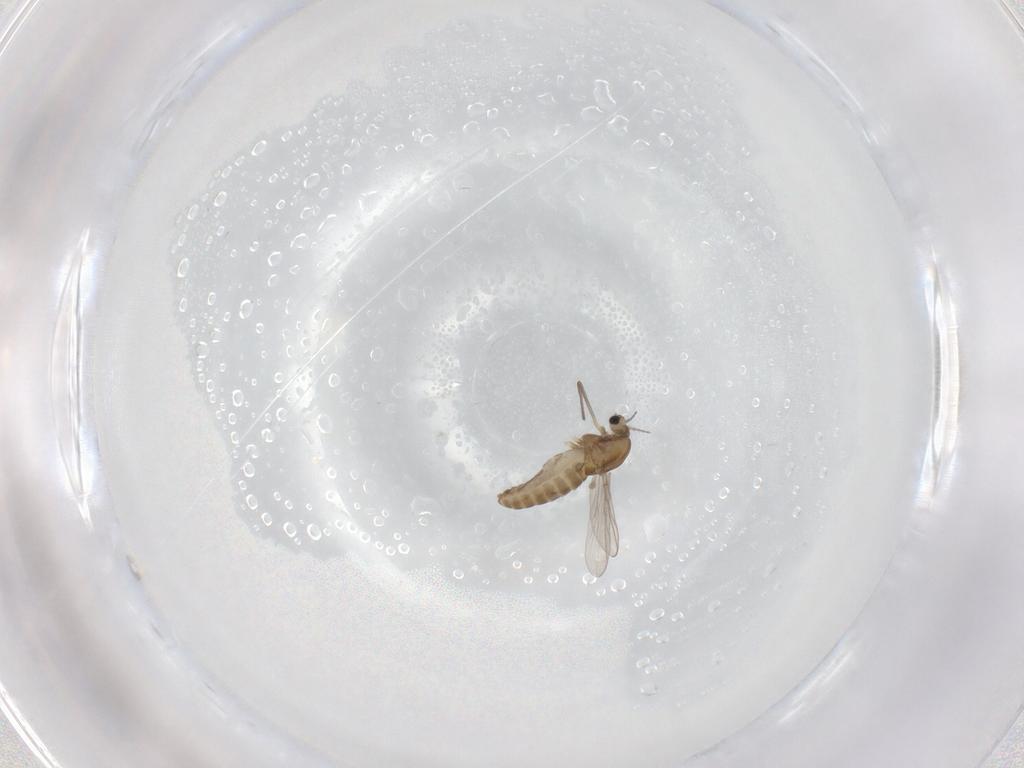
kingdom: Animalia
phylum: Arthropoda
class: Insecta
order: Diptera
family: Chironomidae
